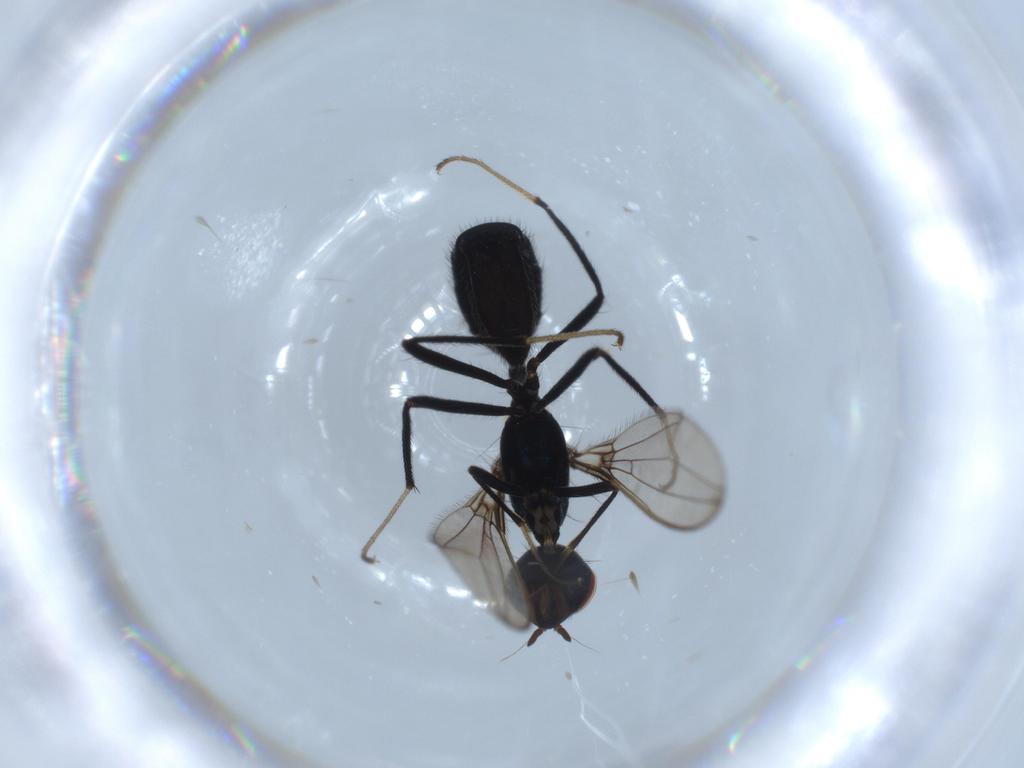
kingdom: Animalia
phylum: Arthropoda
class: Insecta
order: Diptera
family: Richardiidae
